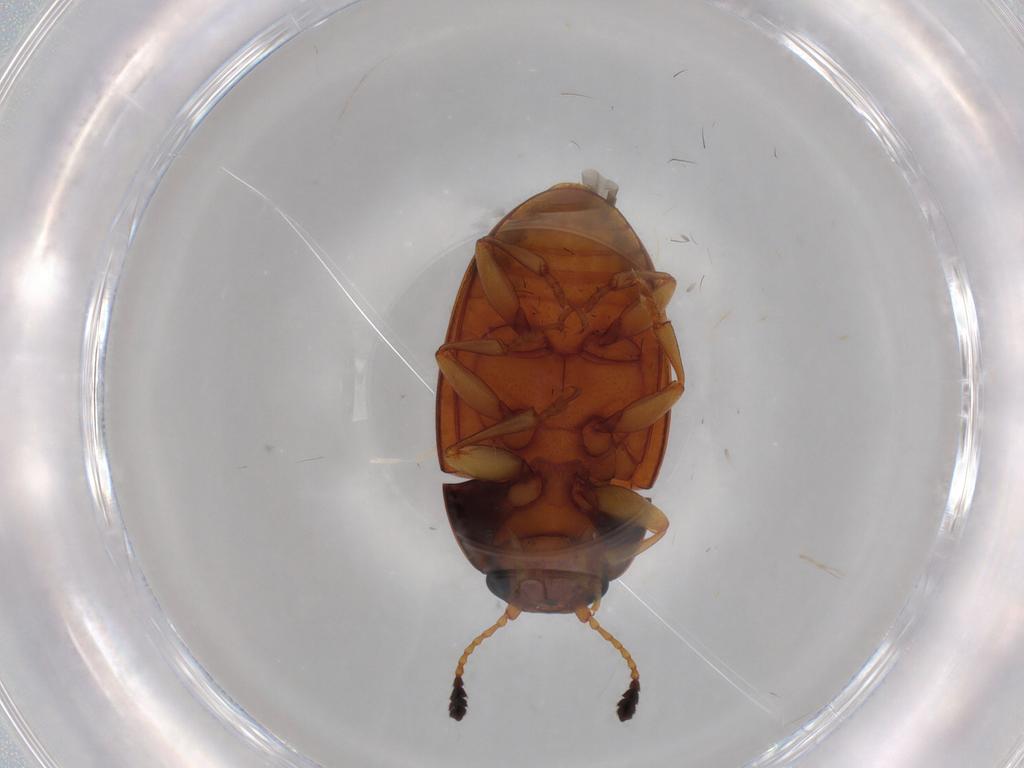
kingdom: Animalia
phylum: Arthropoda
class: Insecta
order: Coleoptera
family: Erotylidae
